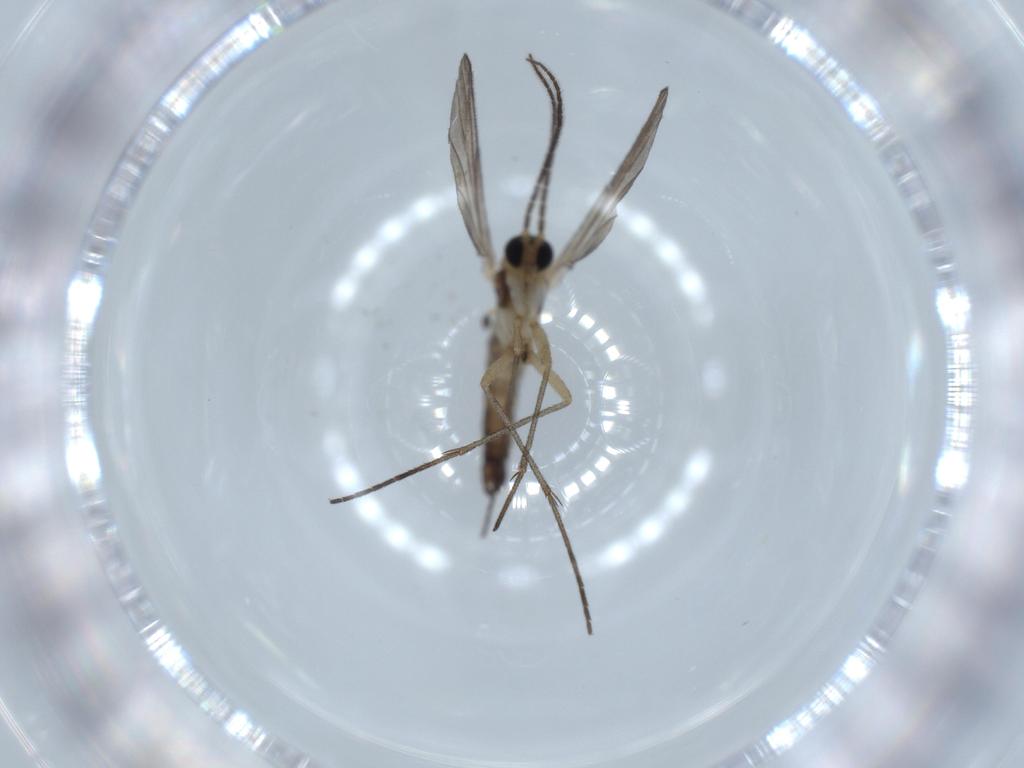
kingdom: Animalia
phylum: Arthropoda
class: Insecta
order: Diptera
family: Sciaridae
